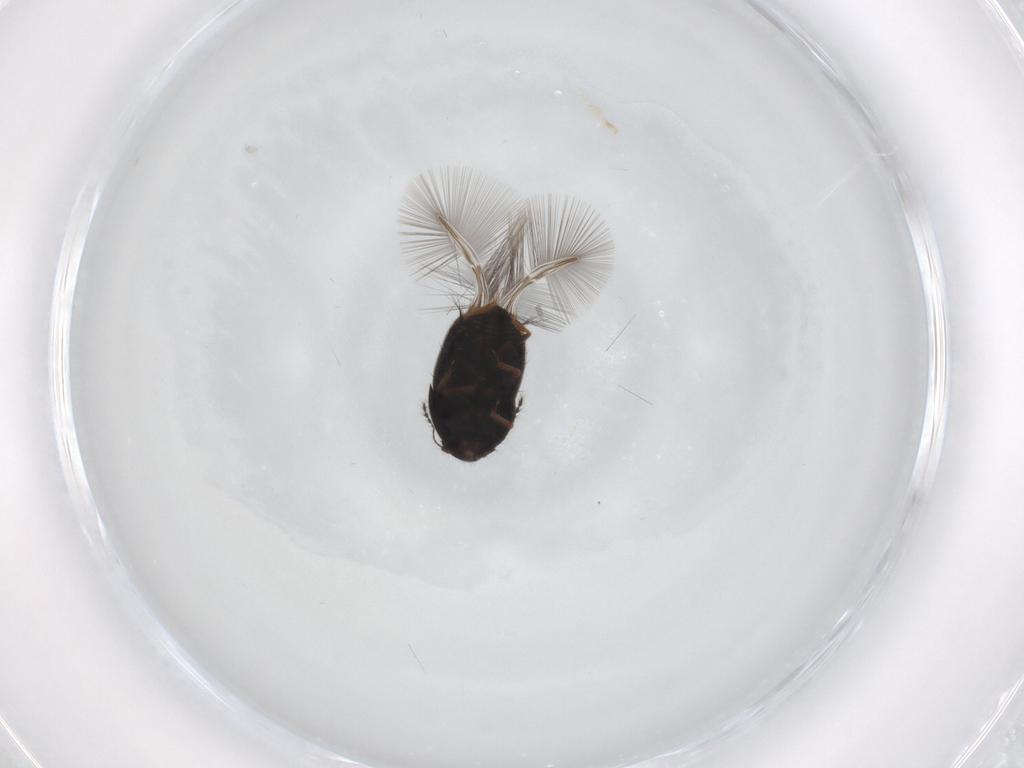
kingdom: Animalia
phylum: Arthropoda
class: Insecta
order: Coleoptera
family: Ptiliidae
